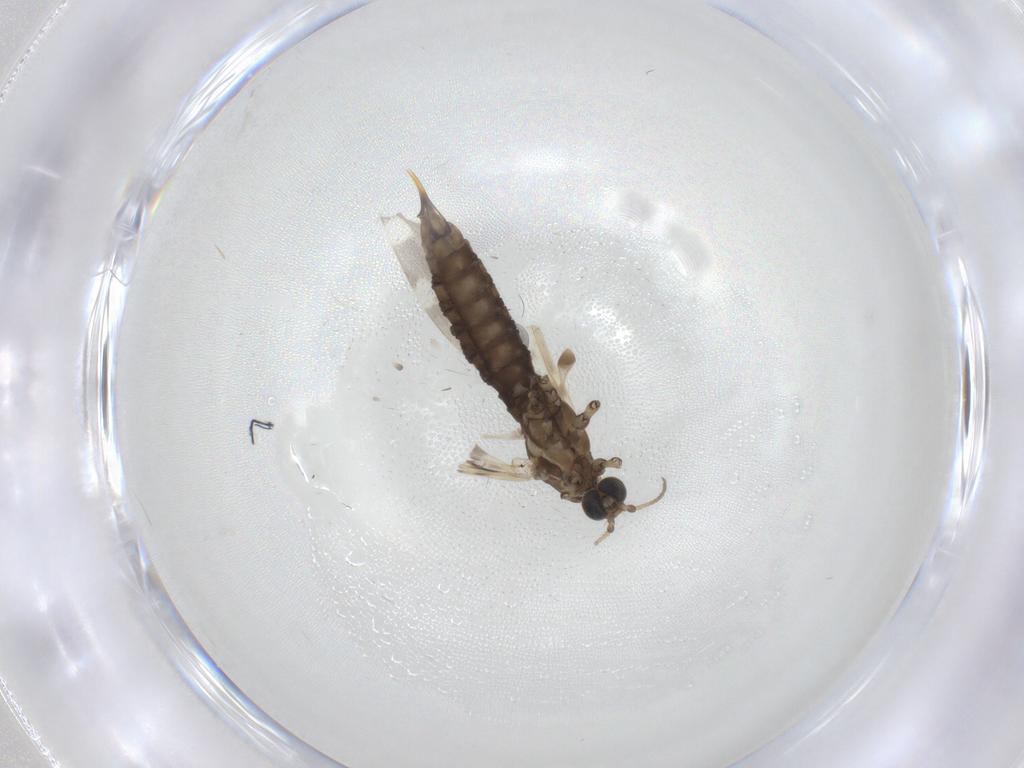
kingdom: Animalia
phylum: Arthropoda
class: Insecta
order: Diptera
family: Limoniidae
